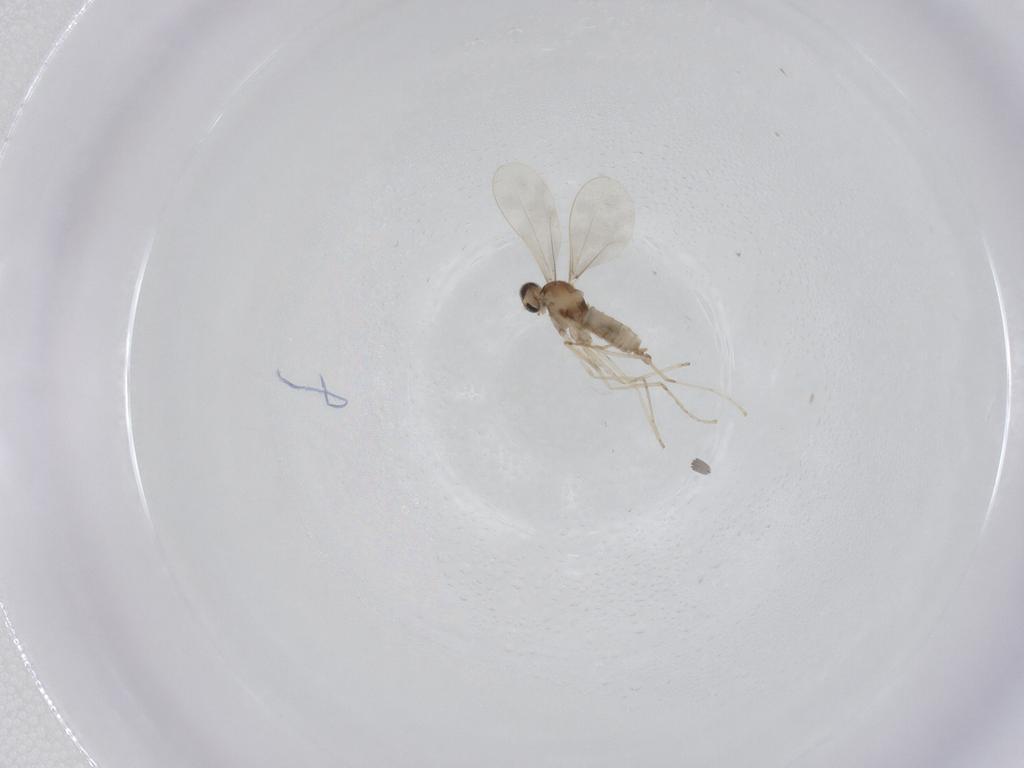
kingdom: Animalia
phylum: Arthropoda
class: Insecta
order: Diptera
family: Cecidomyiidae
